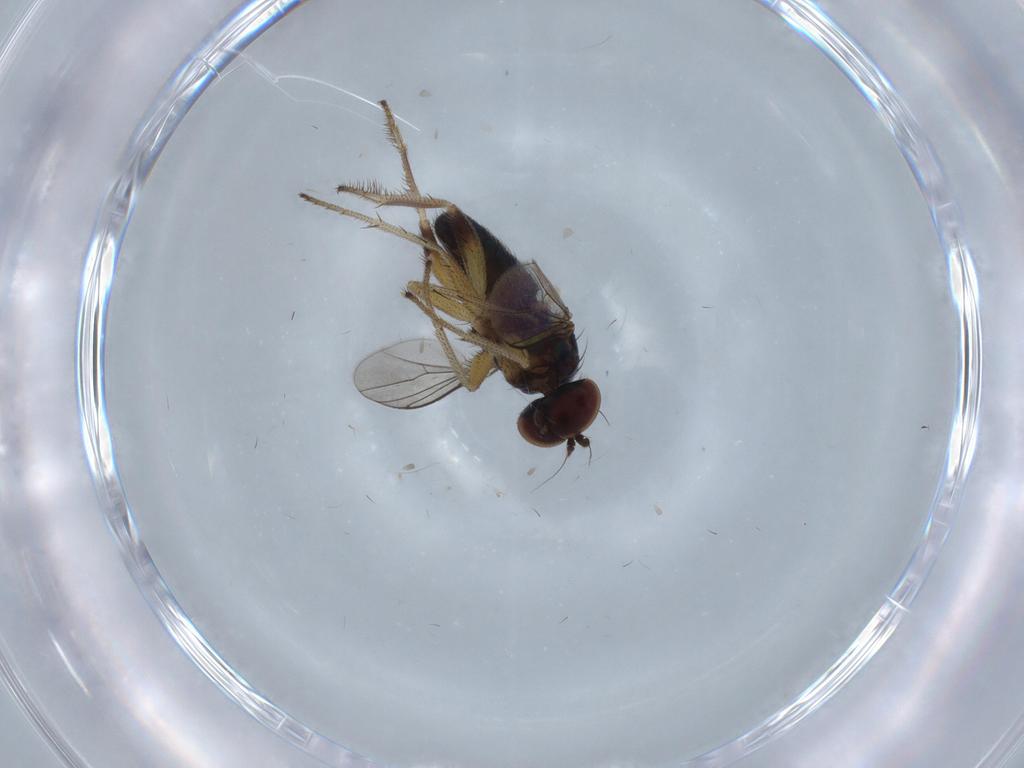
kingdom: Animalia
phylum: Arthropoda
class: Insecta
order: Diptera
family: Dolichopodidae
